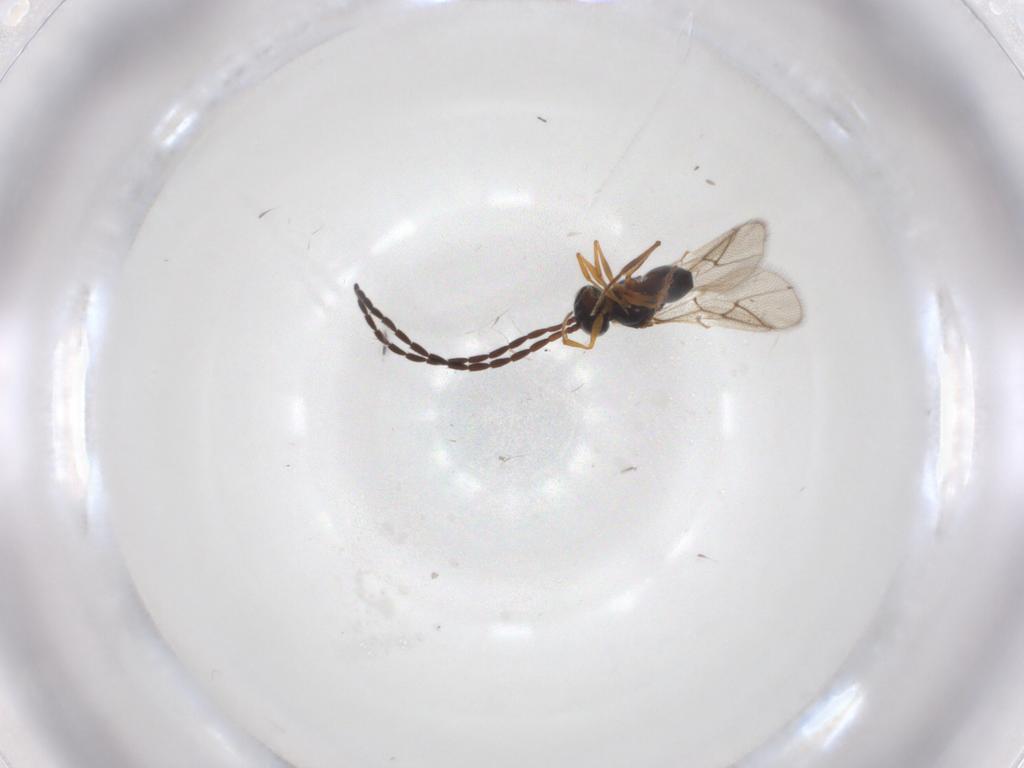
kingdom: Animalia
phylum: Arthropoda
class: Insecta
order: Hymenoptera
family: Figitidae
